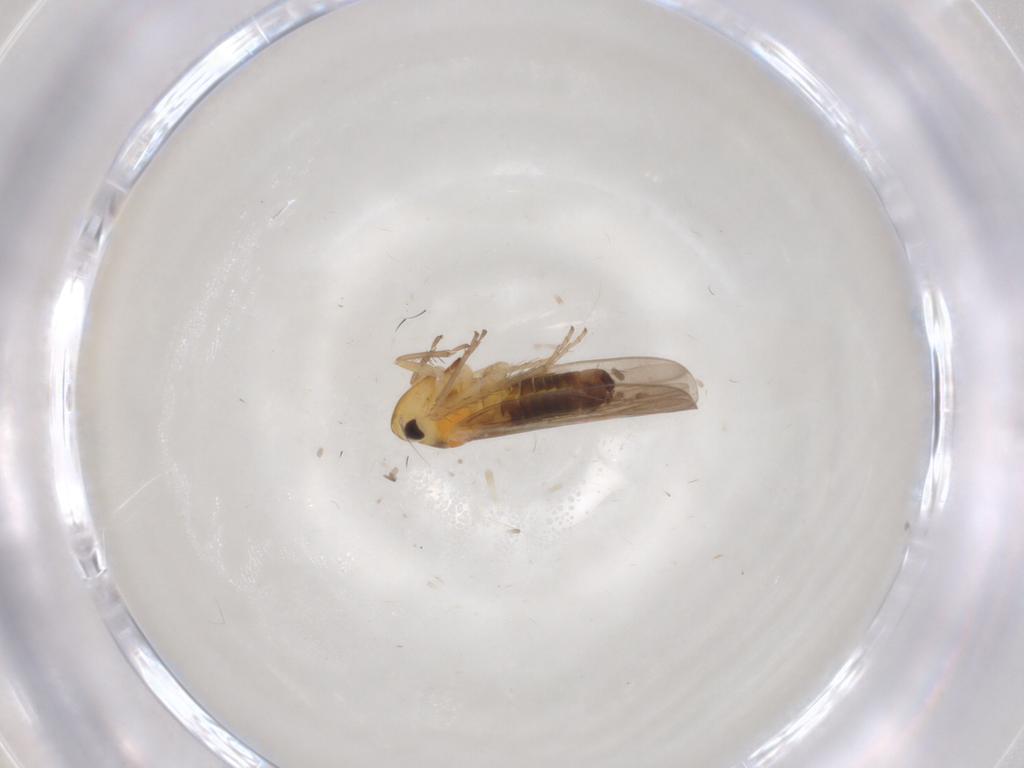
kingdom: Animalia
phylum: Arthropoda
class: Insecta
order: Hemiptera
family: Cicadellidae
